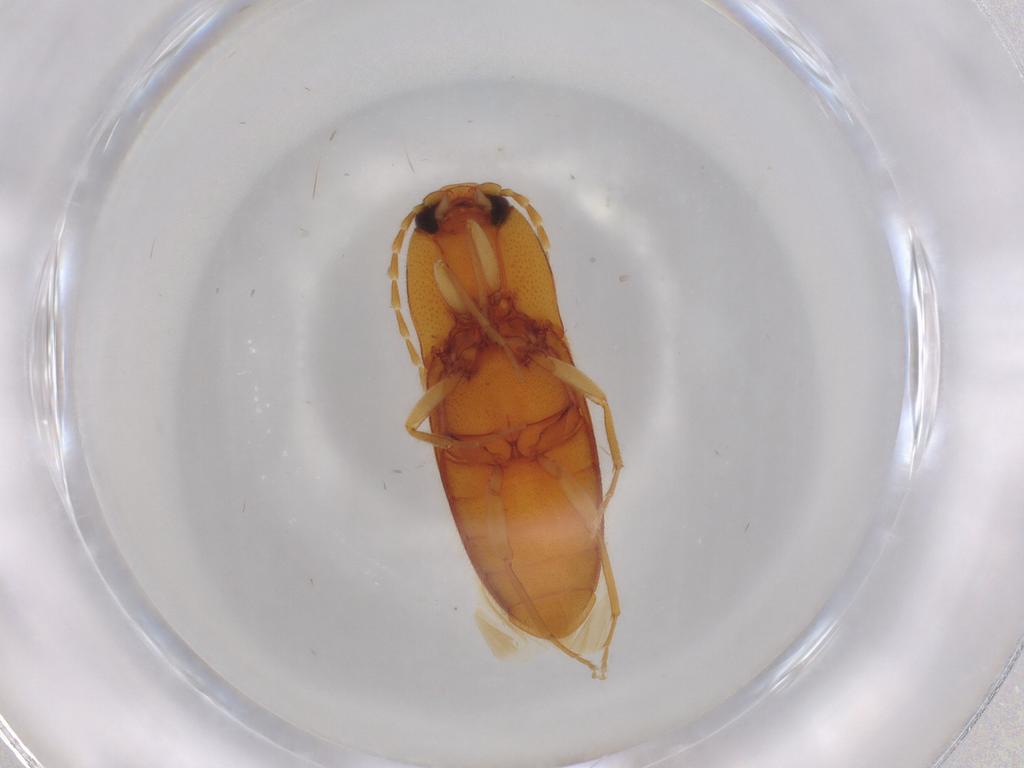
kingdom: Animalia
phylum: Arthropoda
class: Insecta
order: Coleoptera
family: Elateridae
